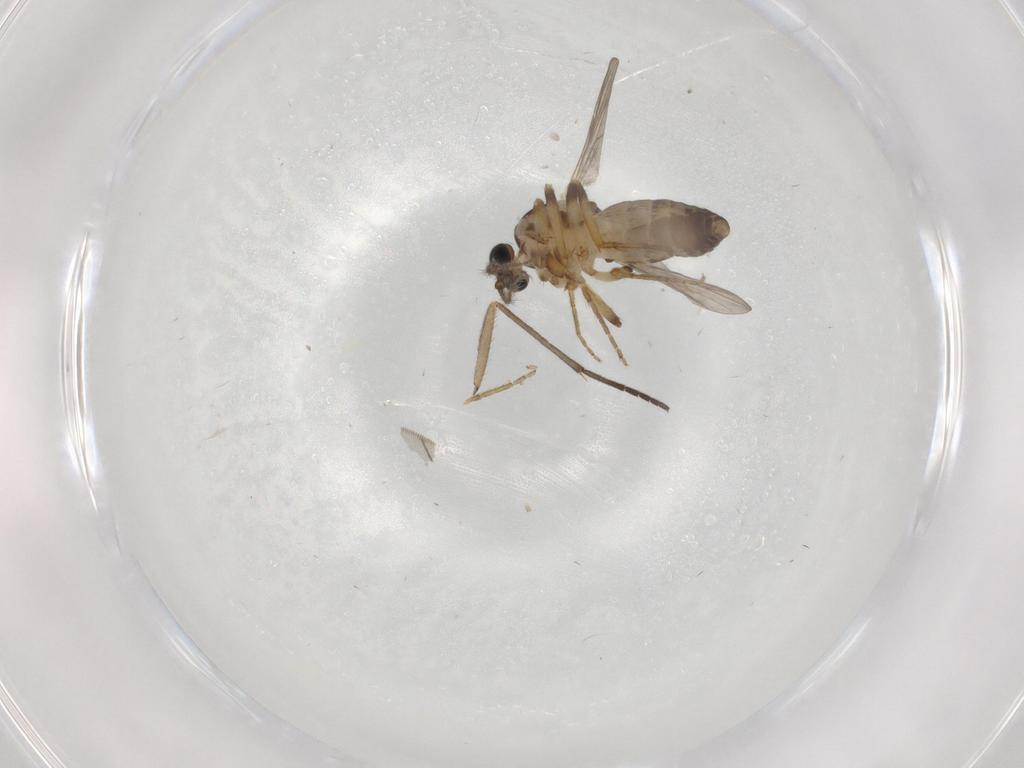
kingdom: Animalia
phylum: Arthropoda
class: Insecta
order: Diptera
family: Ceratopogonidae
